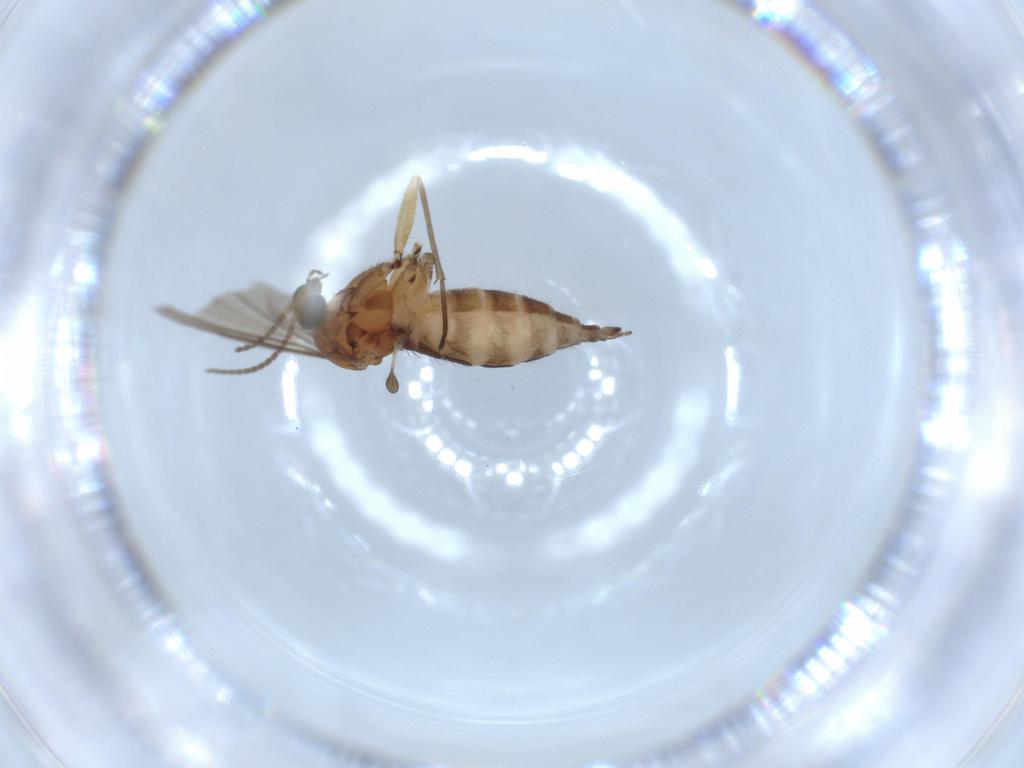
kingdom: Animalia
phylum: Arthropoda
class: Insecta
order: Diptera
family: Sciaridae
